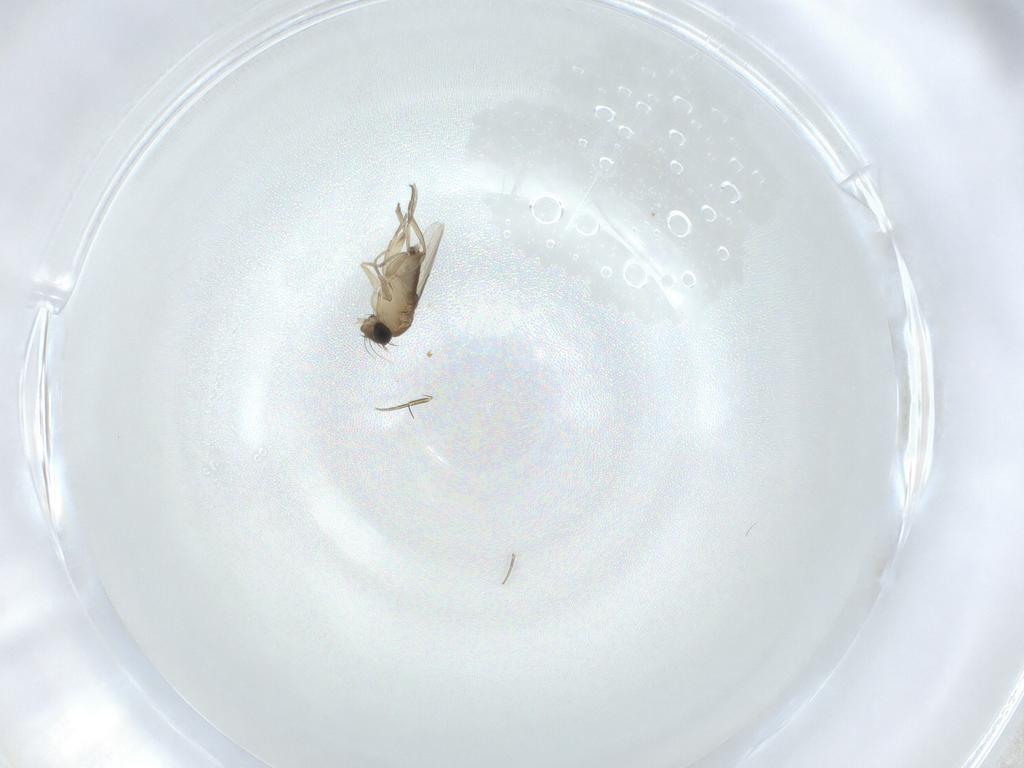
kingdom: Animalia
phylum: Arthropoda
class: Insecta
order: Diptera
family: Phoridae
